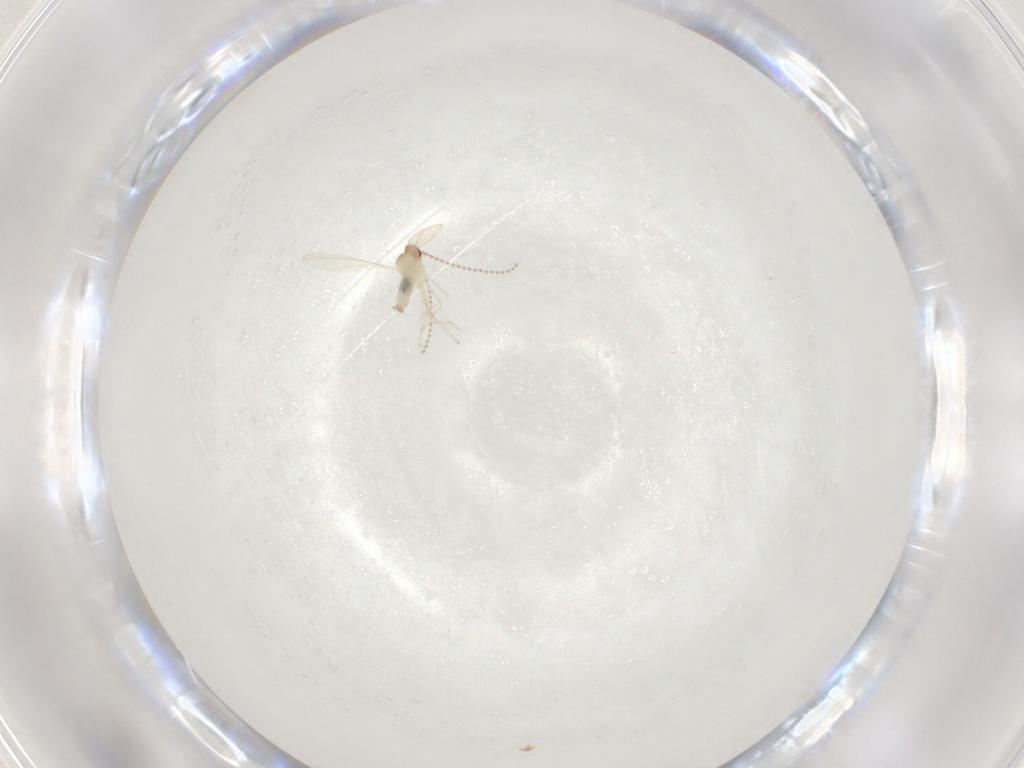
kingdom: Animalia
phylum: Arthropoda
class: Insecta
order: Diptera
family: Cecidomyiidae
